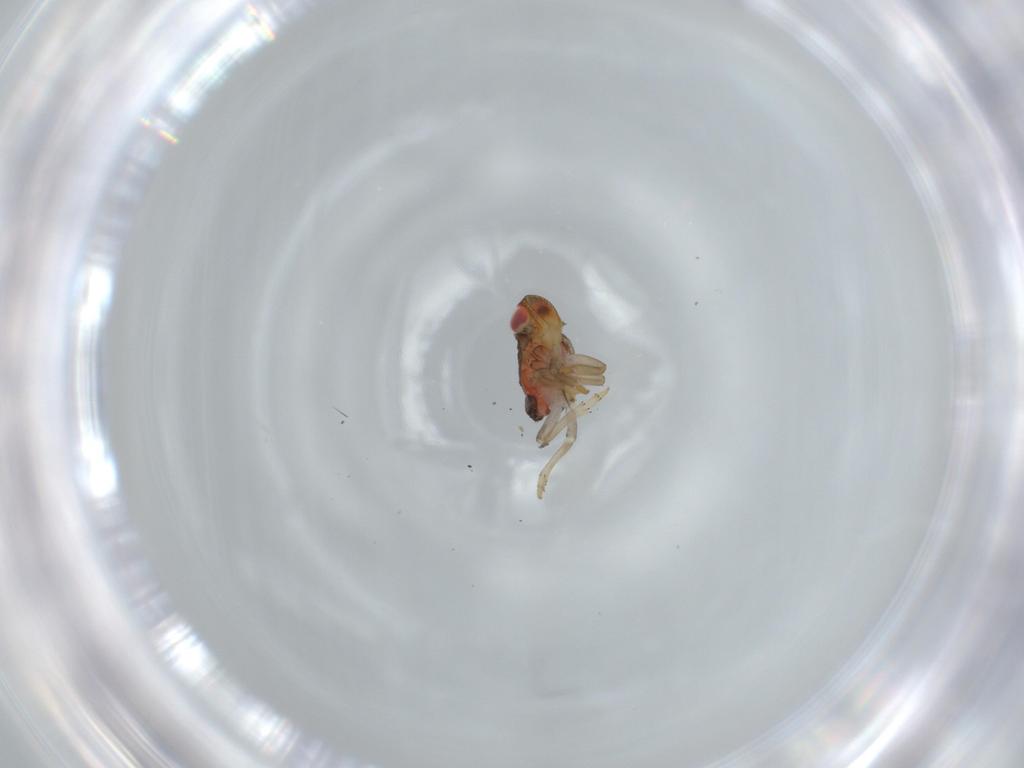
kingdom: Animalia
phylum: Arthropoda
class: Insecta
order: Hemiptera
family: Issidae
